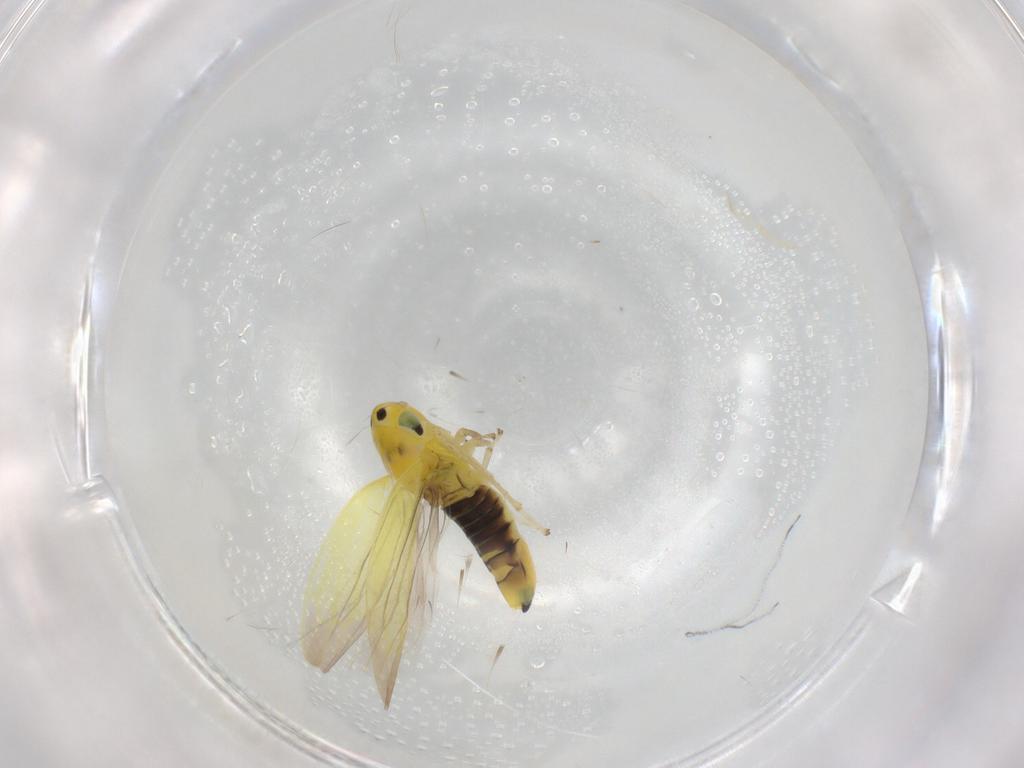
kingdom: Animalia
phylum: Arthropoda
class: Insecta
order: Hemiptera
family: Cicadellidae
